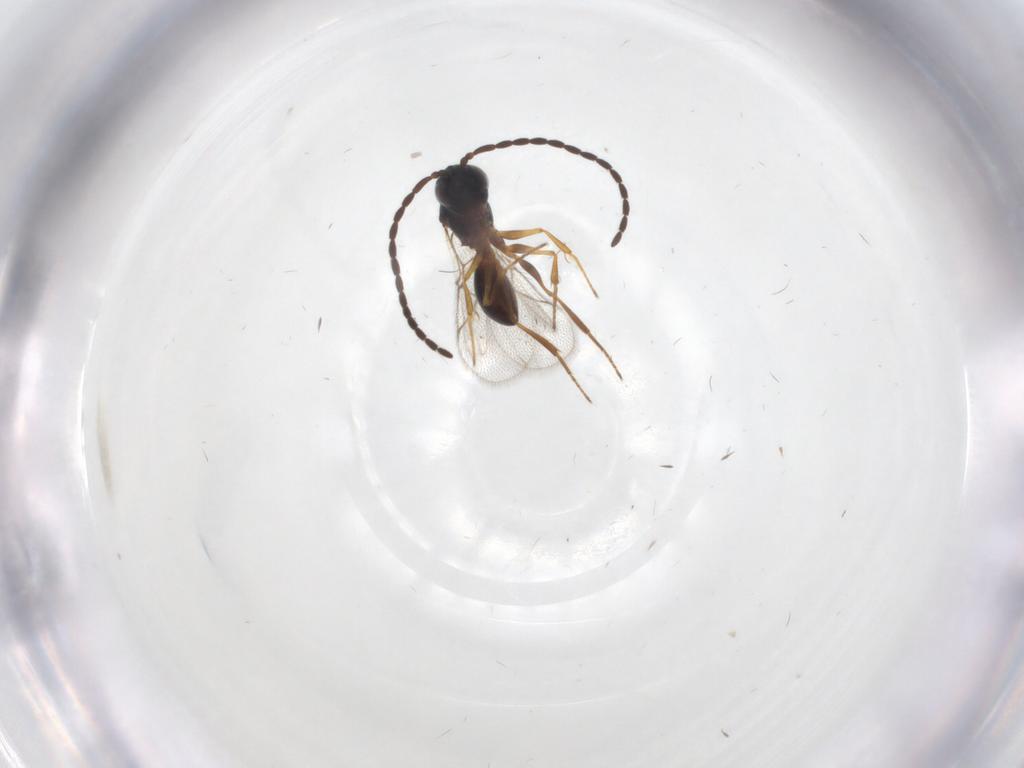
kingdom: Animalia
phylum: Arthropoda
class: Insecta
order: Hymenoptera
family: Figitidae
